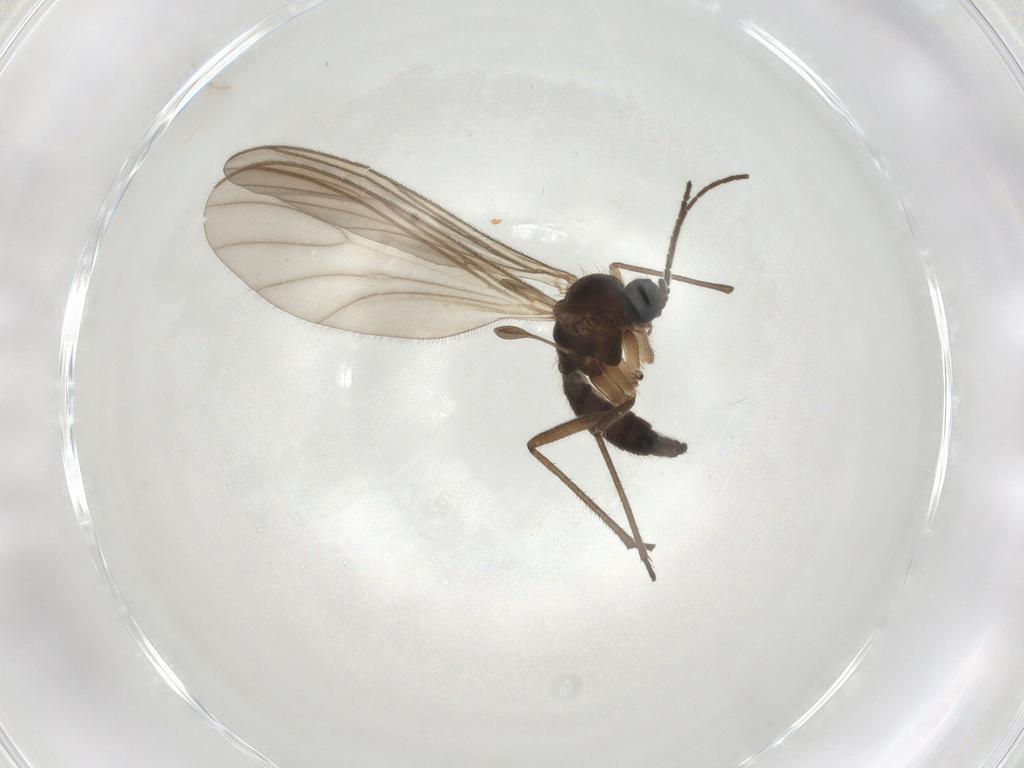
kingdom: Animalia
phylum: Arthropoda
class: Insecta
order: Diptera
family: Sciaridae
